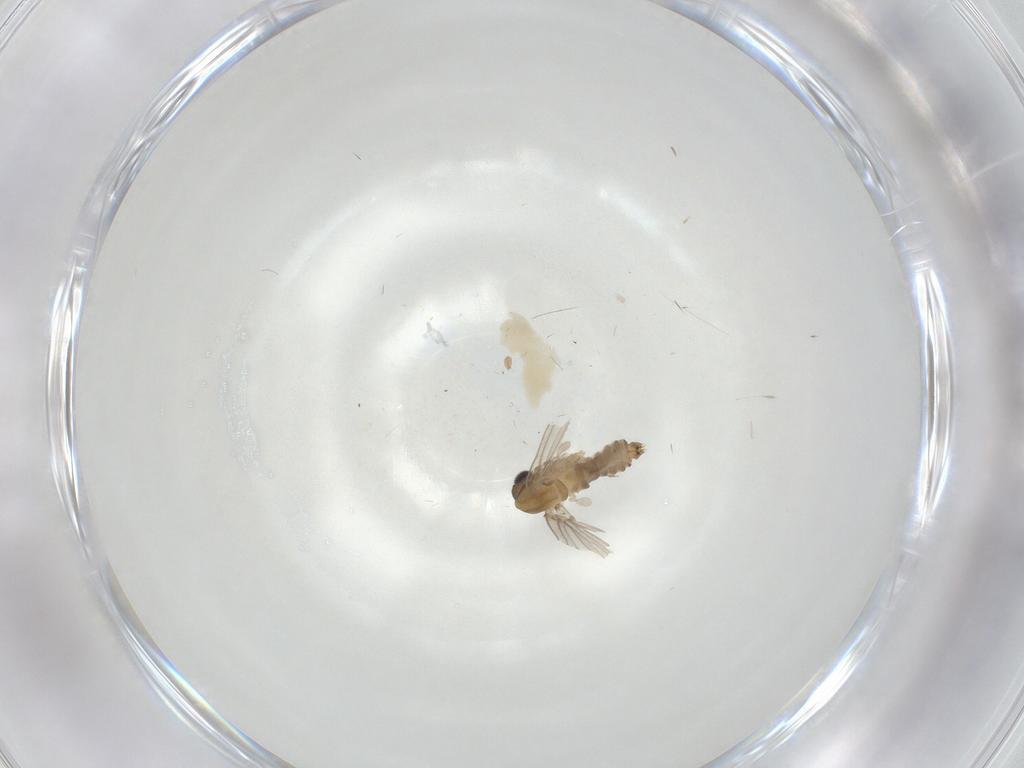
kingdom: Animalia
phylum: Arthropoda
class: Insecta
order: Diptera
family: Psychodidae
